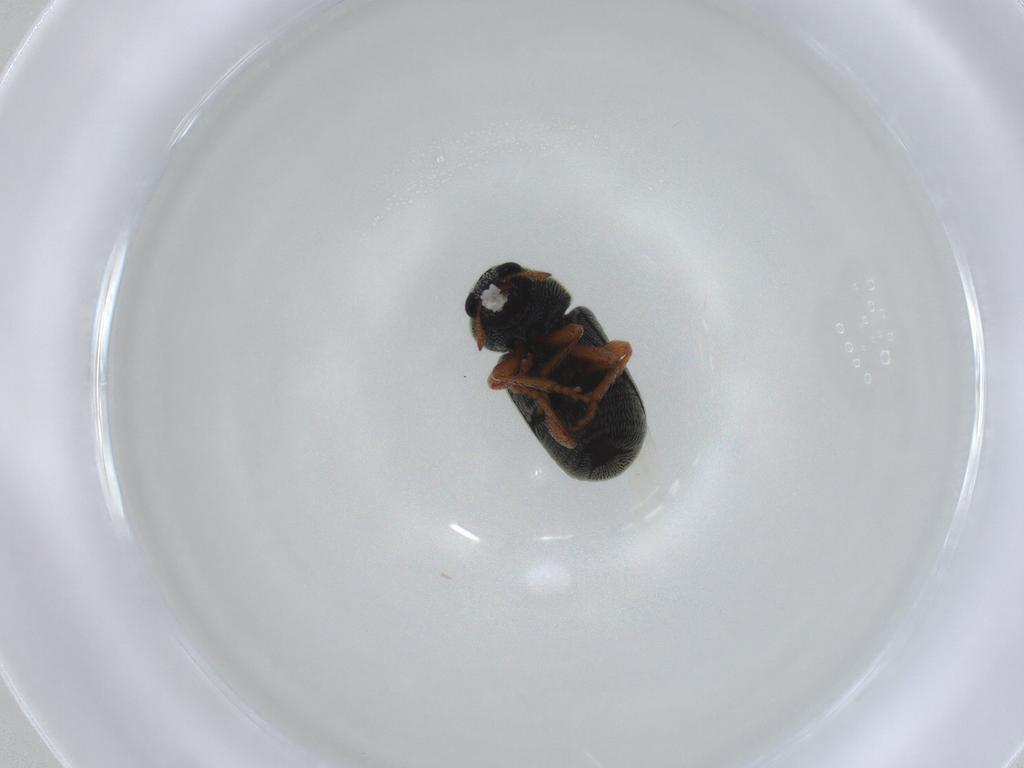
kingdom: Animalia
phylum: Arthropoda
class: Insecta
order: Coleoptera
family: Anthribidae
